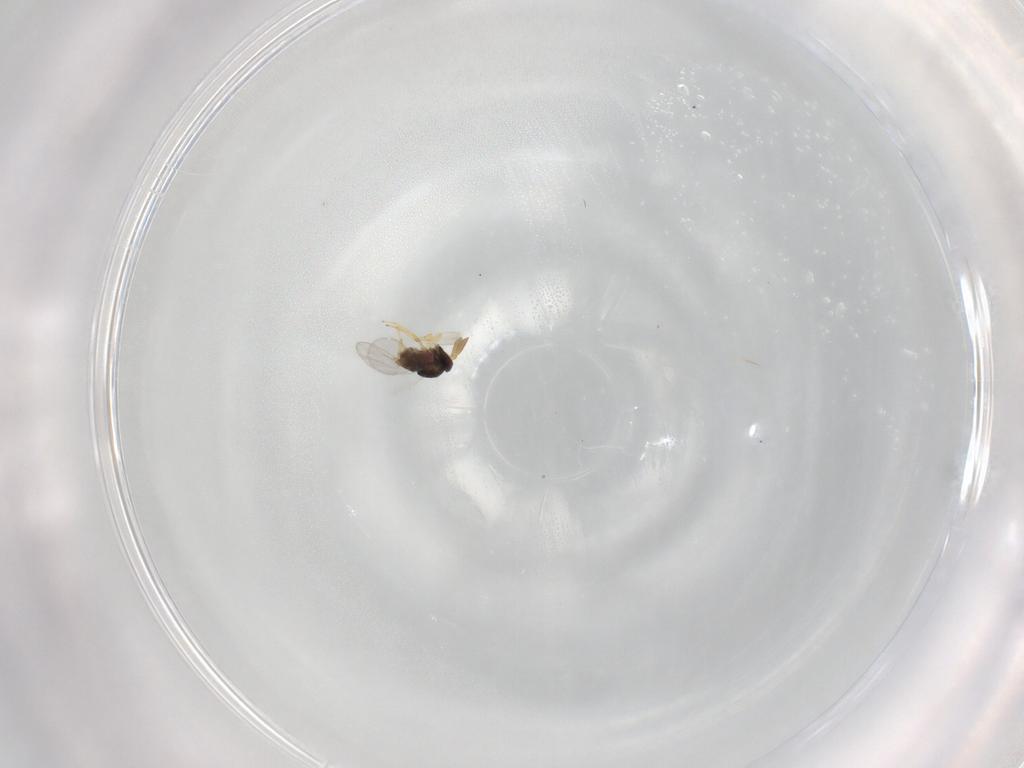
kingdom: Animalia
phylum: Arthropoda
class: Insecta
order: Hymenoptera
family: Encyrtidae
